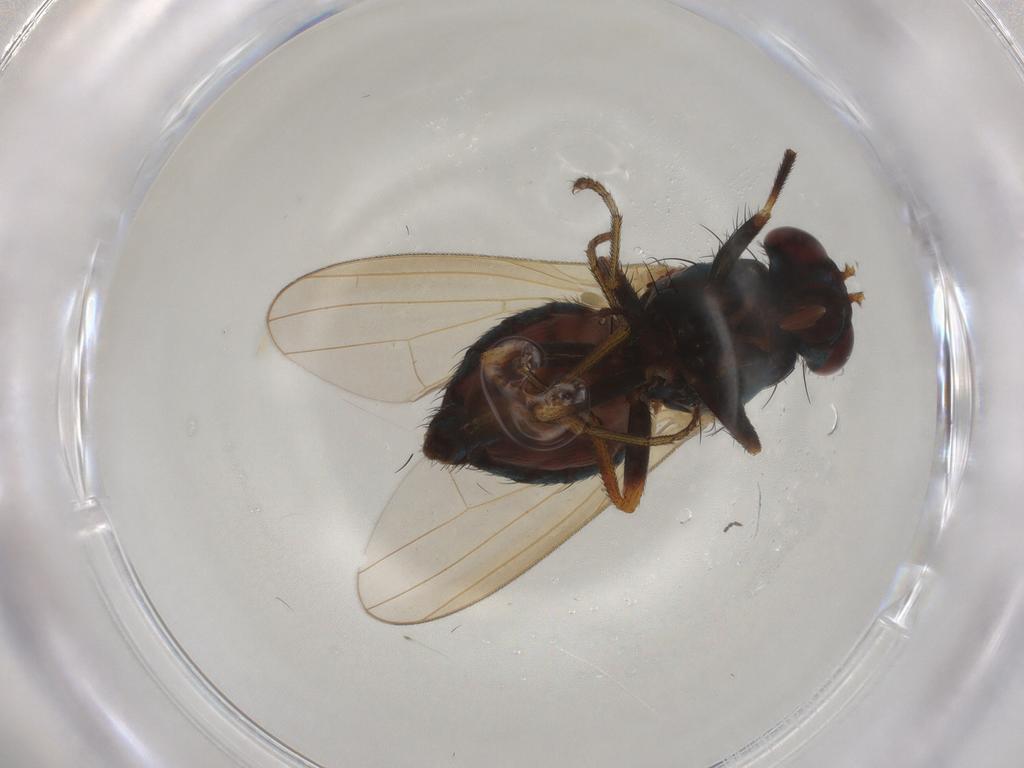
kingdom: Animalia
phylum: Arthropoda
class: Insecta
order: Diptera
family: Lauxaniidae
